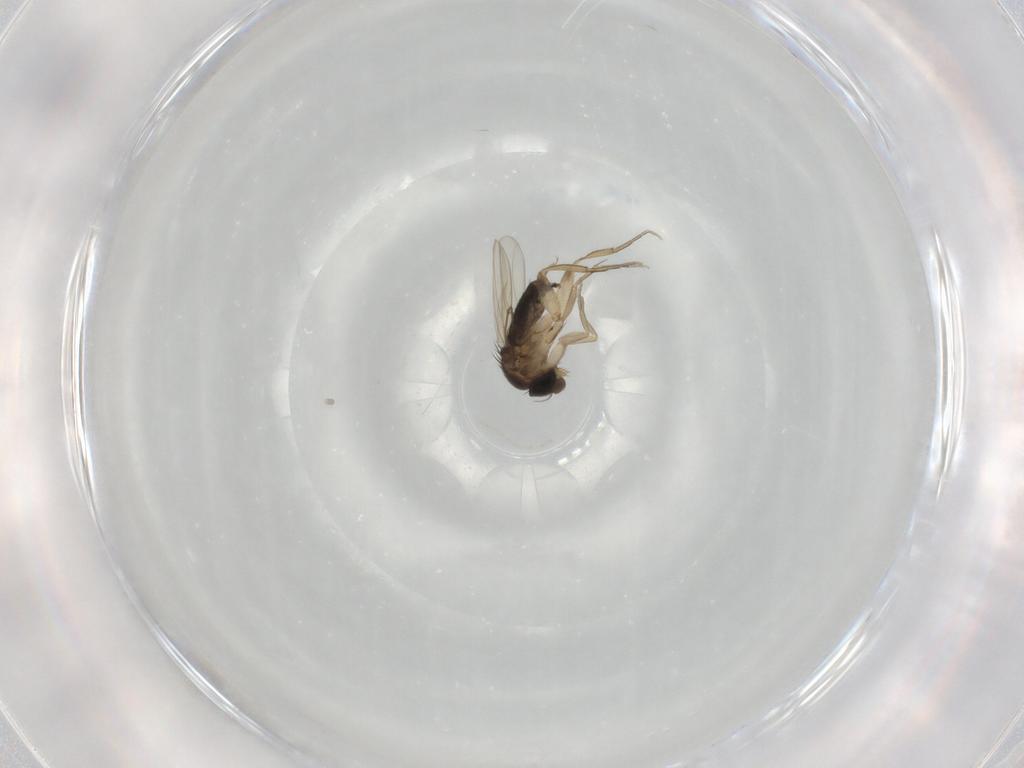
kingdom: Animalia
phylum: Arthropoda
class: Insecta
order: Diptera
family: Phoridae
